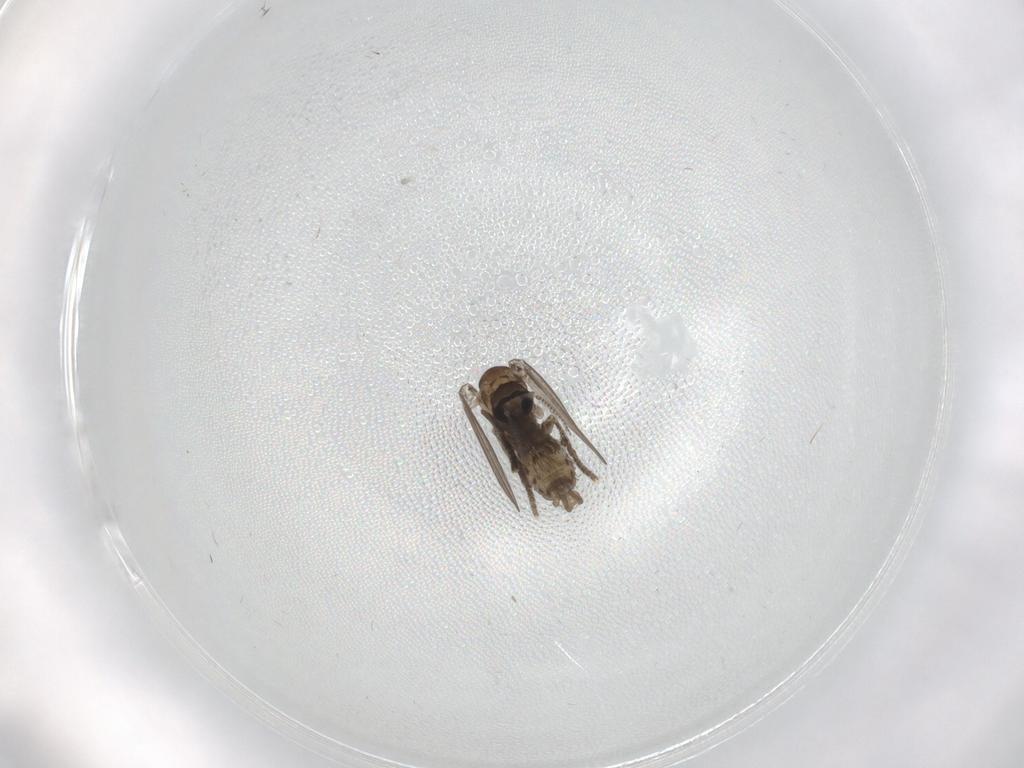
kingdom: Animalia
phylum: Arthropoda
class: Insecta
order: Diptera
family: Psychodidae
